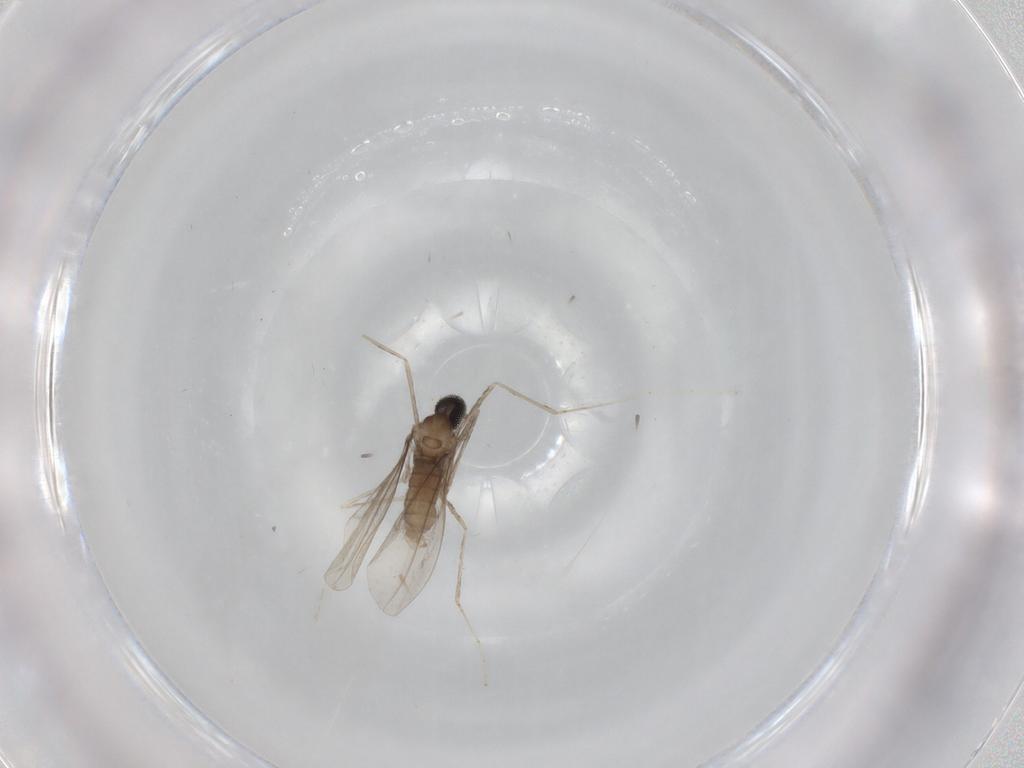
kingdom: Animalia
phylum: Arthropoda
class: Insecta
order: Diptera
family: Cecidomyiidae
